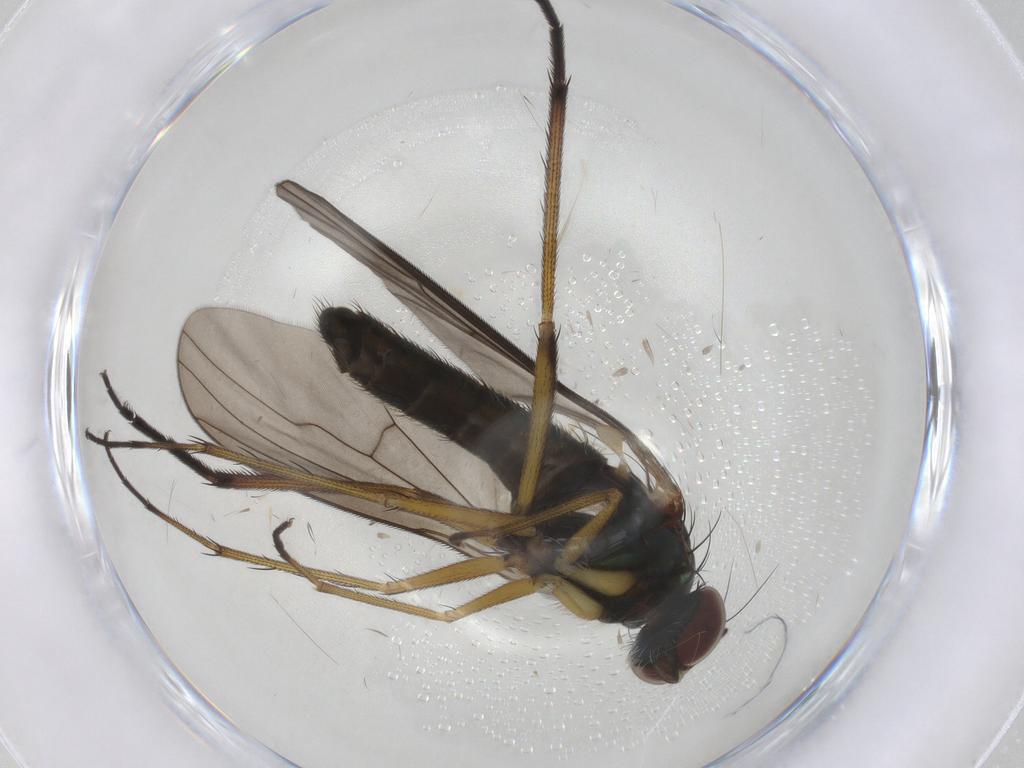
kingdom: Animalia
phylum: Arthropoda
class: Insecta
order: Diptera
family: Dolichopodidae
